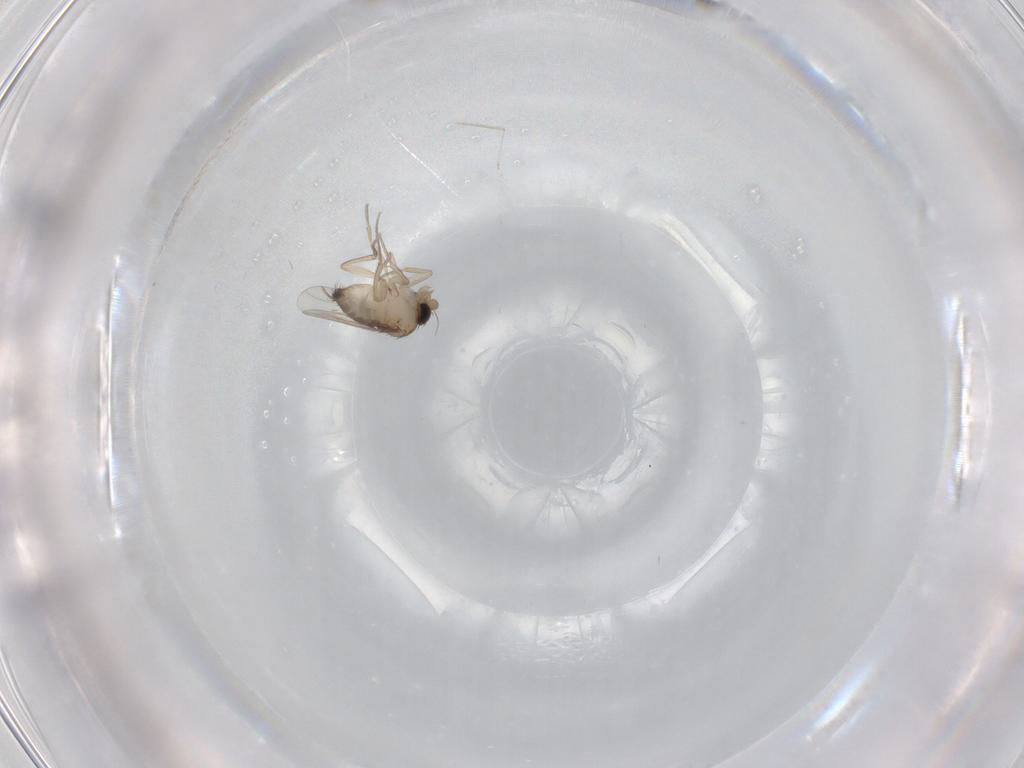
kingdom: Animalia
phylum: Arthropoda
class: Insecta
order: Diptera
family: Phoridae
